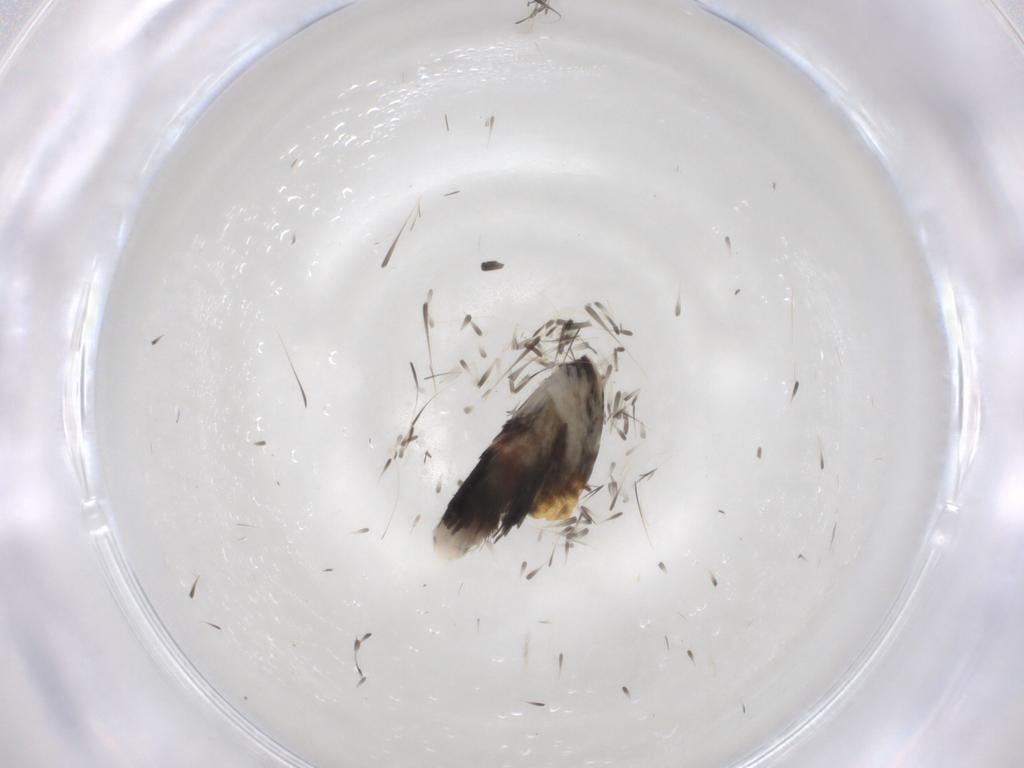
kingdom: Animalia
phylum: Arthropoda
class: Insecta
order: Lepidoptera
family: Pyralidae
